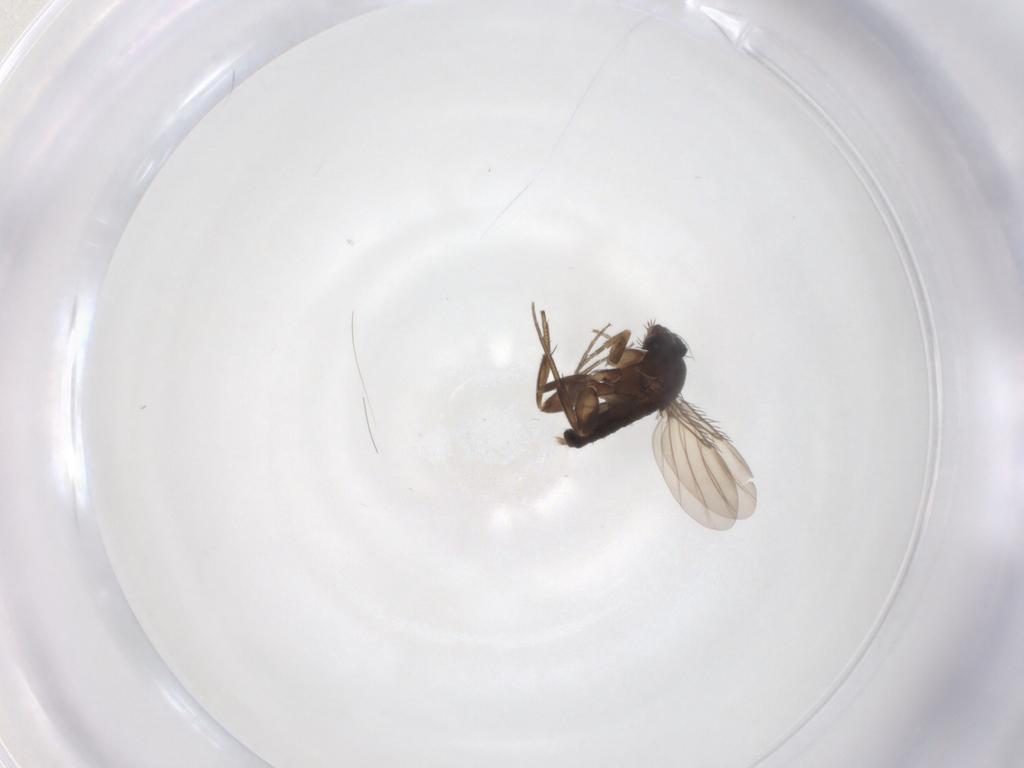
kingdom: Animalia
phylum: Arthropoda
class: Insecta
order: Diptera
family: Phoridae
